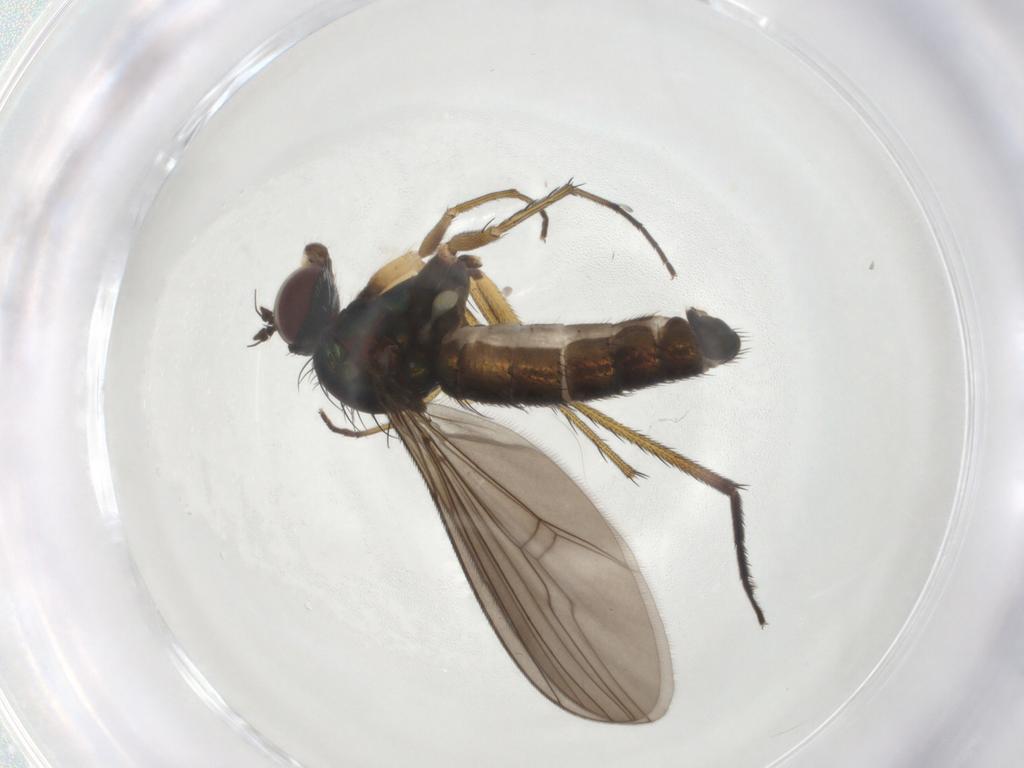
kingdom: Animalia
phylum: Arthropoda
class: Insecta
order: Diptera
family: Dolichopodidae
